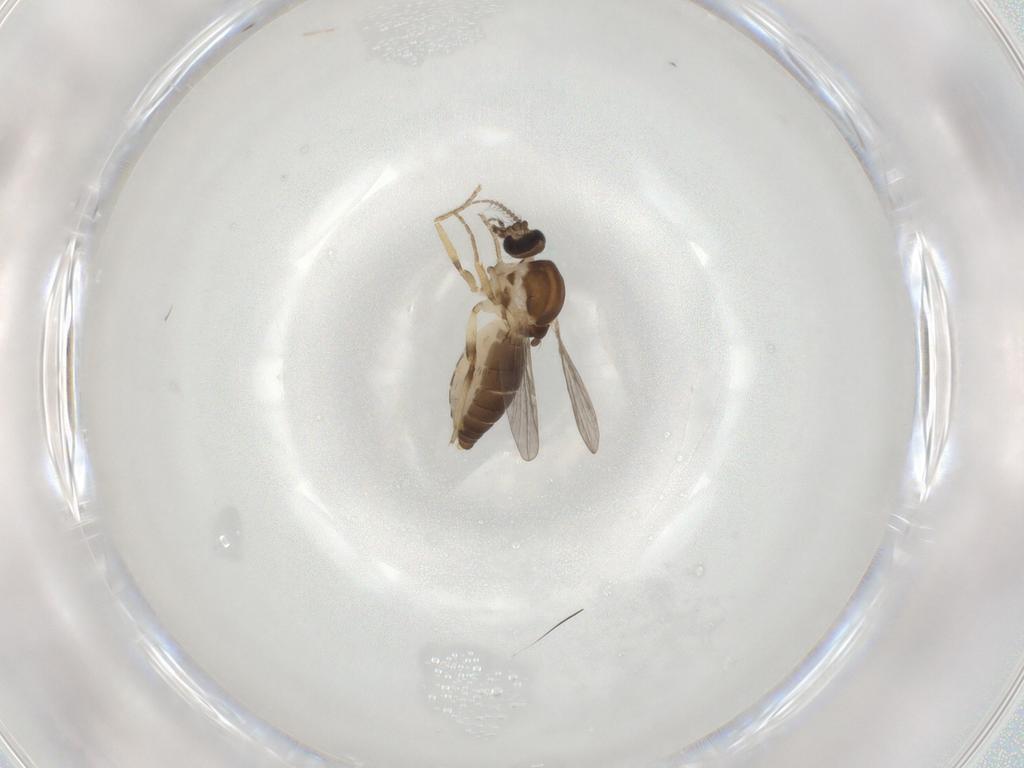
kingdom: Animalia
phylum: Arthropoda
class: Insecta
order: Diptera
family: Ceratopogonidae
